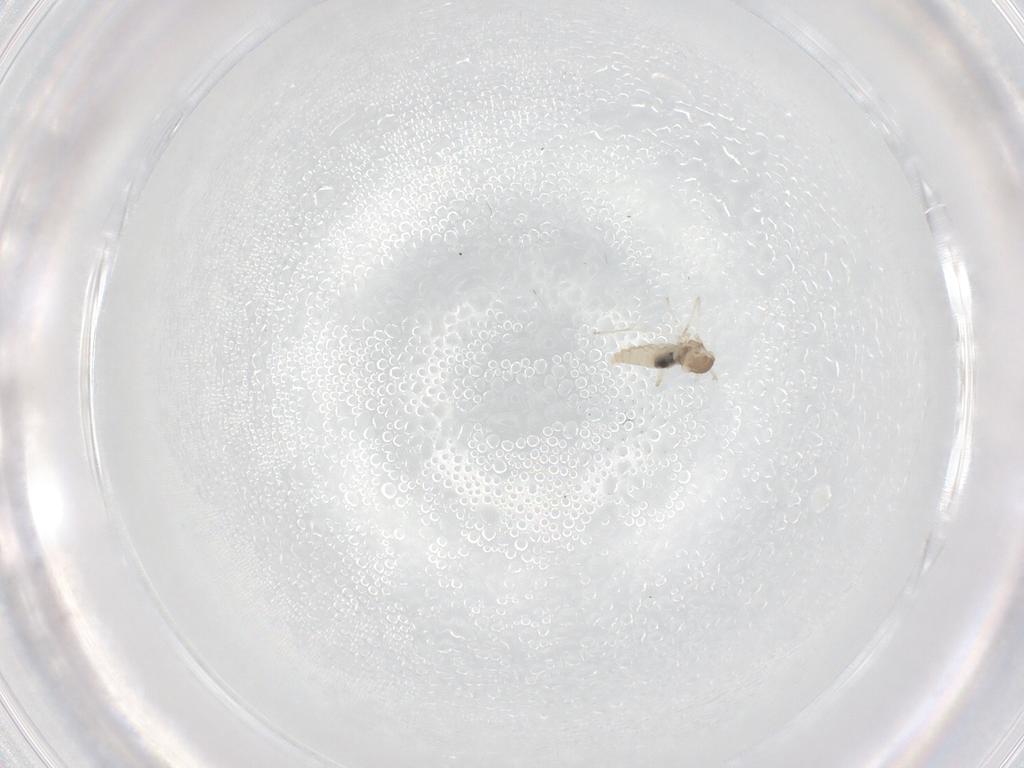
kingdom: Animalia
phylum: Arthropoda
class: Insecta
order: Diptera
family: Cecidomyiidae
